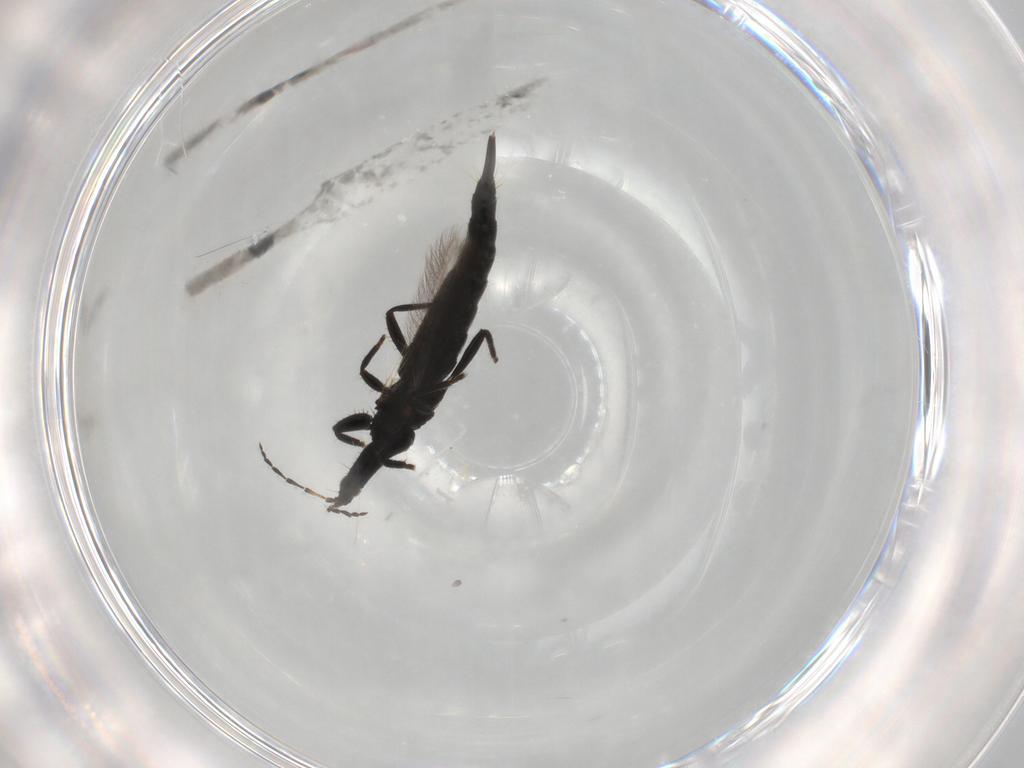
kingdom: Animalia
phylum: Arthropoda
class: Insecta
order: Thysanoptera
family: Phlaeothripidae
